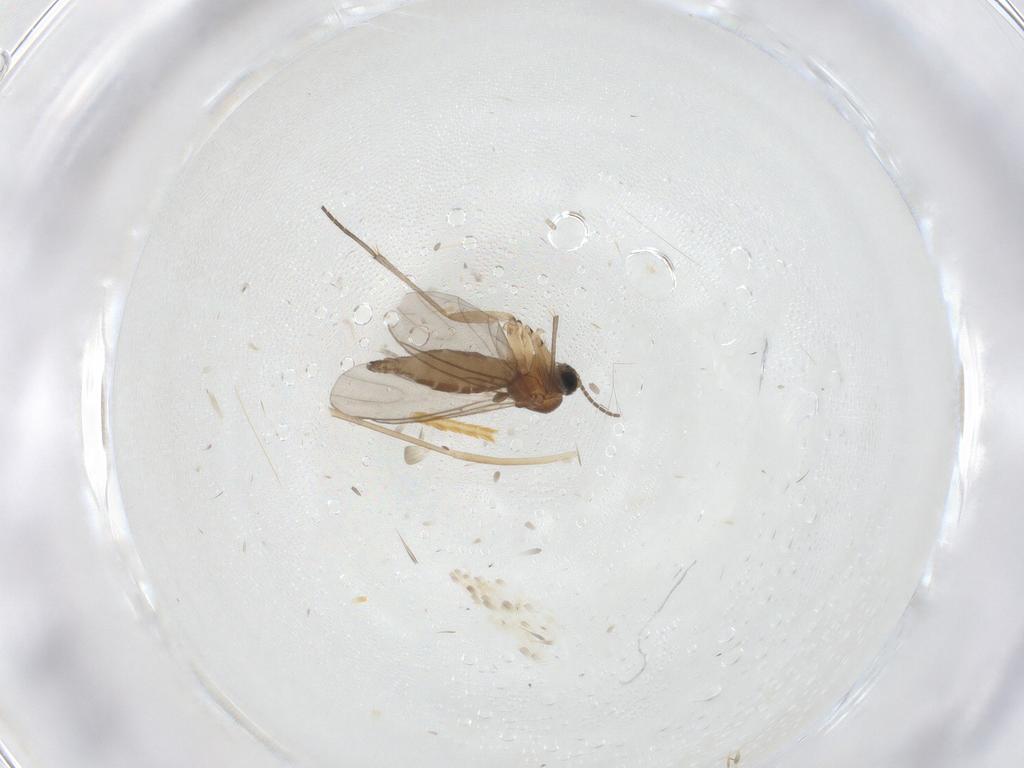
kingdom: Animalia
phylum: Arthropoda
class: Insecta
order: Diptera
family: Sciaridae
